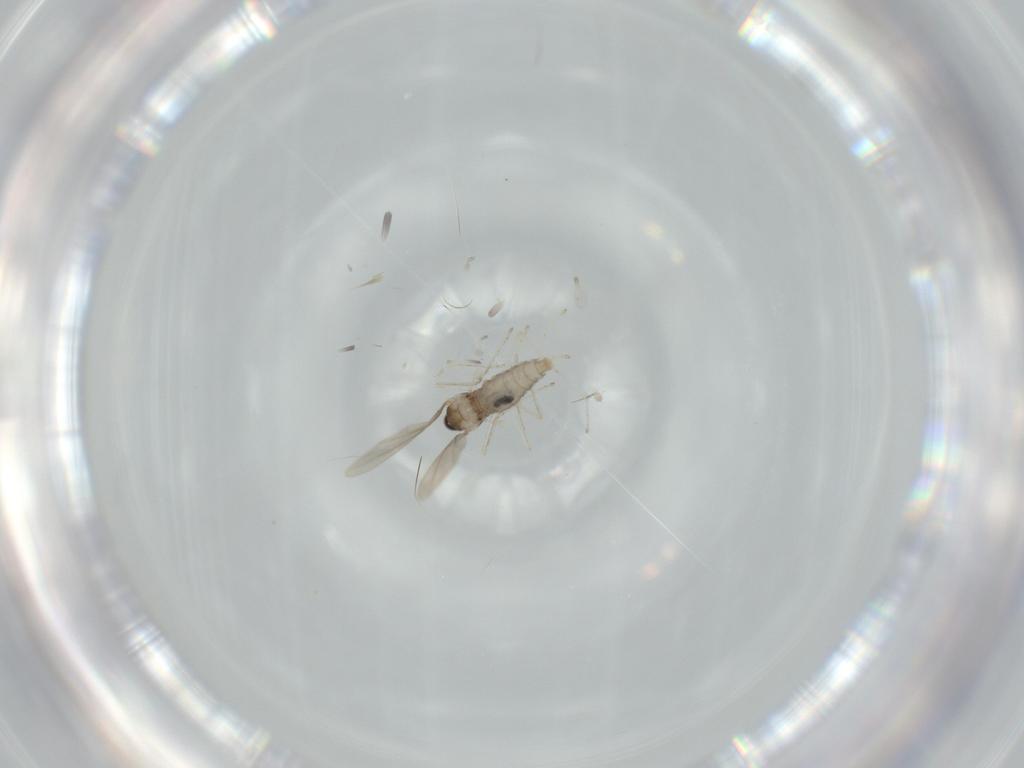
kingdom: Animalia
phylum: Arthropoda
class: Insecta
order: Diptera
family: Cecidomyiidae
